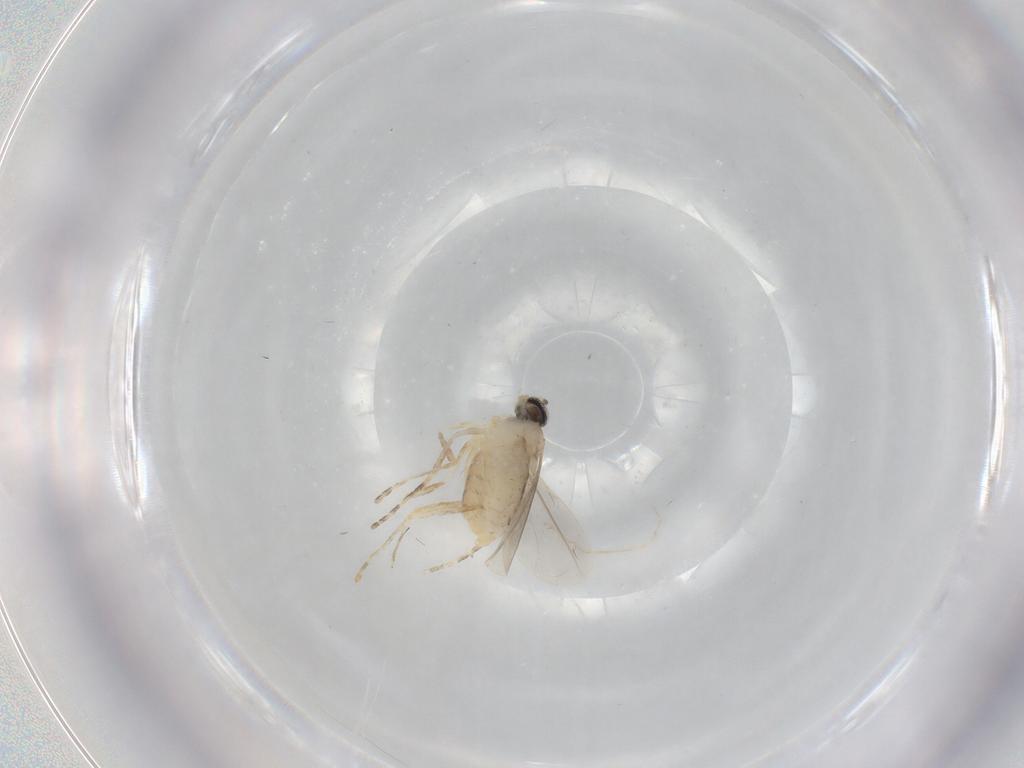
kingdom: Animalia
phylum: Arthropoda
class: Insecta
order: Diptera
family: Cecidomyiidae
